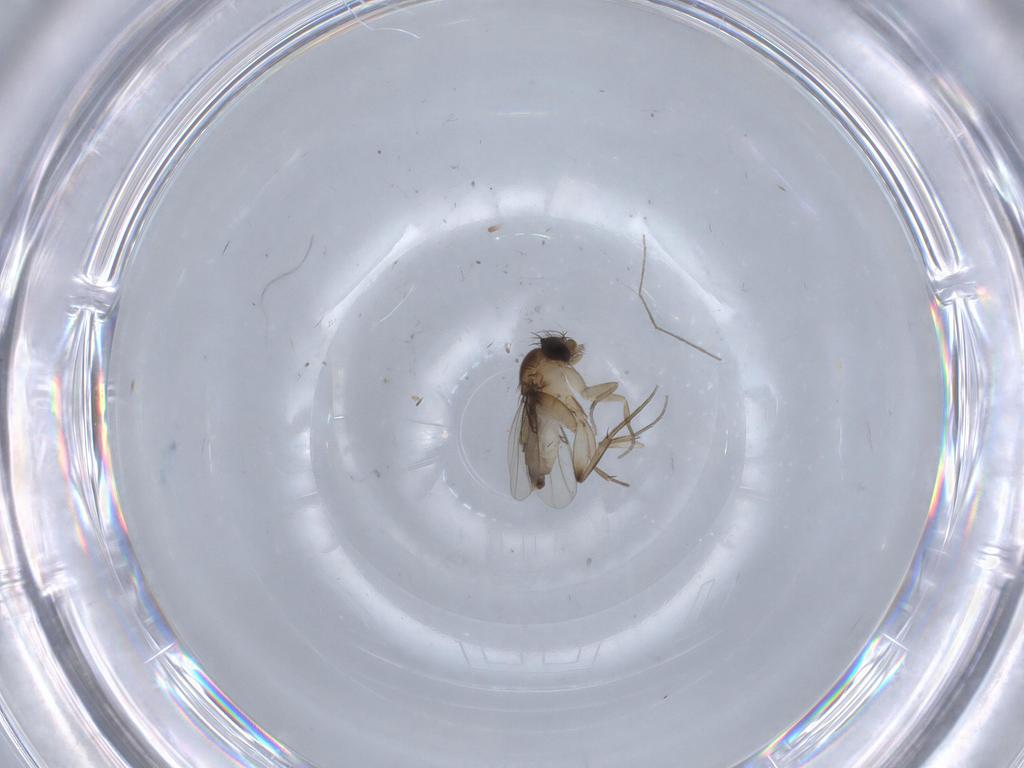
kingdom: Animalia
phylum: Arthropoda
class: Insecta
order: Diptera
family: Phoridae
